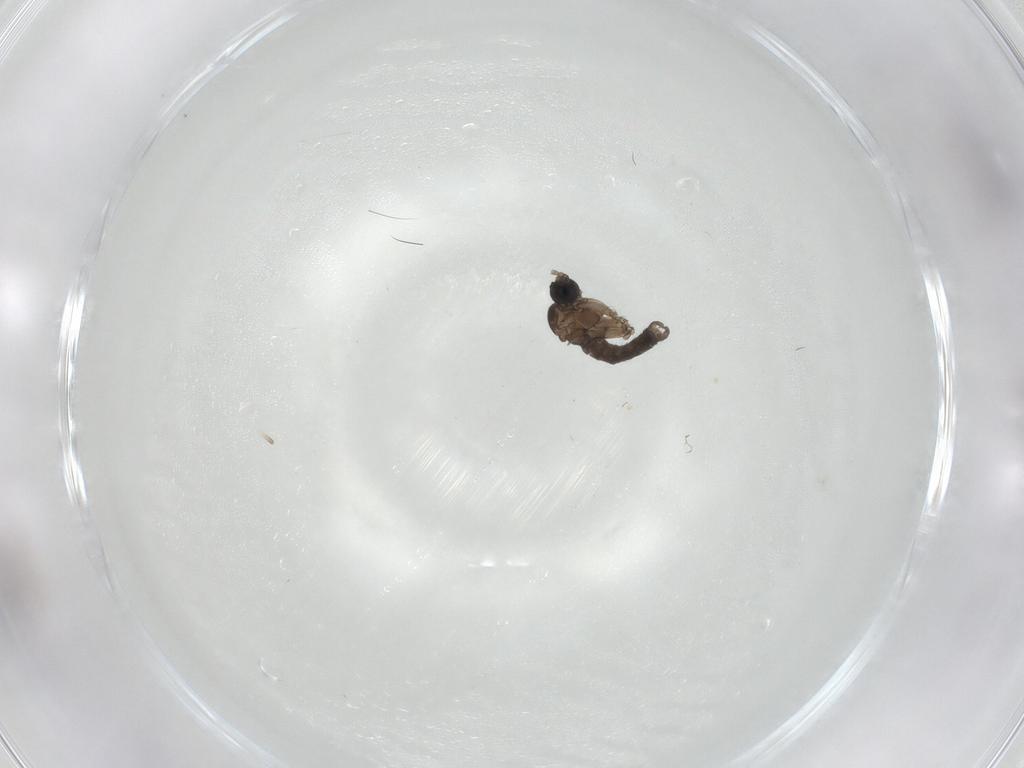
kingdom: Animalia
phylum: Arthropoda
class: Insecta
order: Diptera
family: Sciaridae
